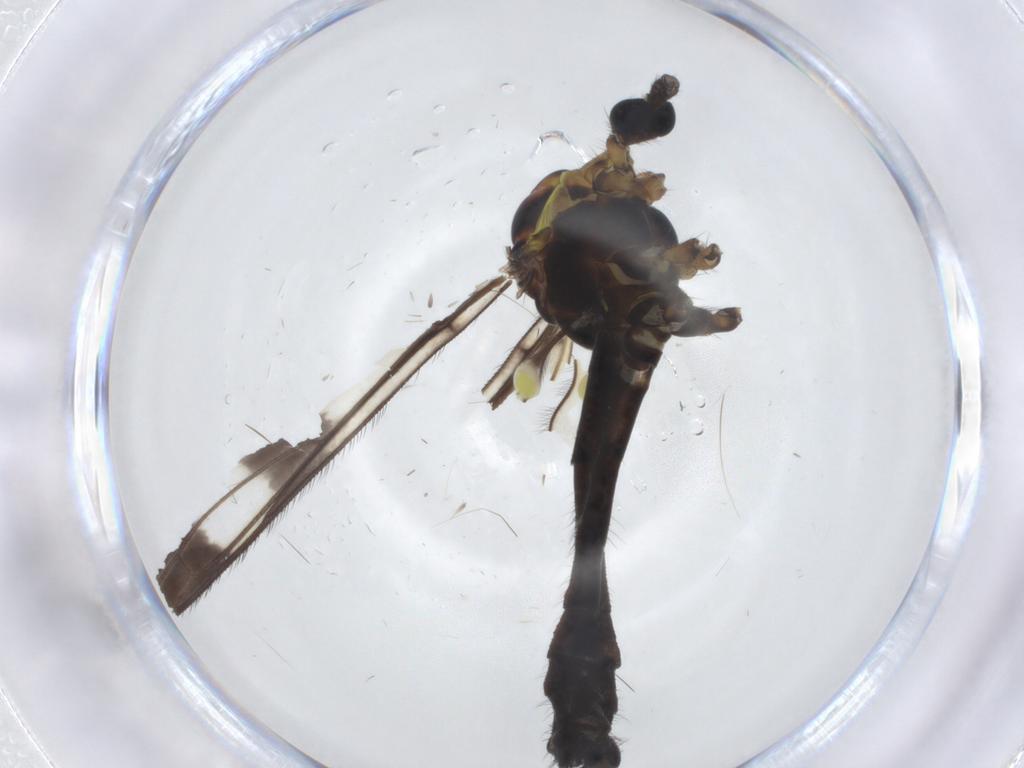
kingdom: Animalia
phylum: Arthropoda
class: Insecta
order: Diptera
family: Limoniidae
